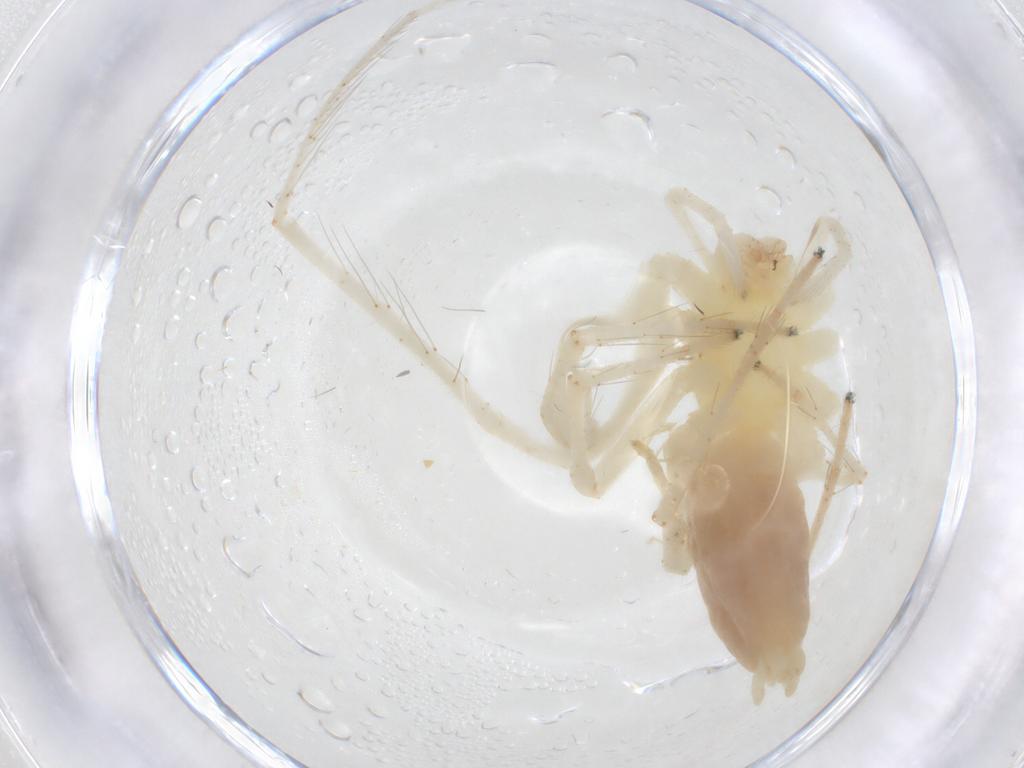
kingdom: Animalia
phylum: Arthropoda
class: Arachnida
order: Araneae
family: Anyphaenidae
